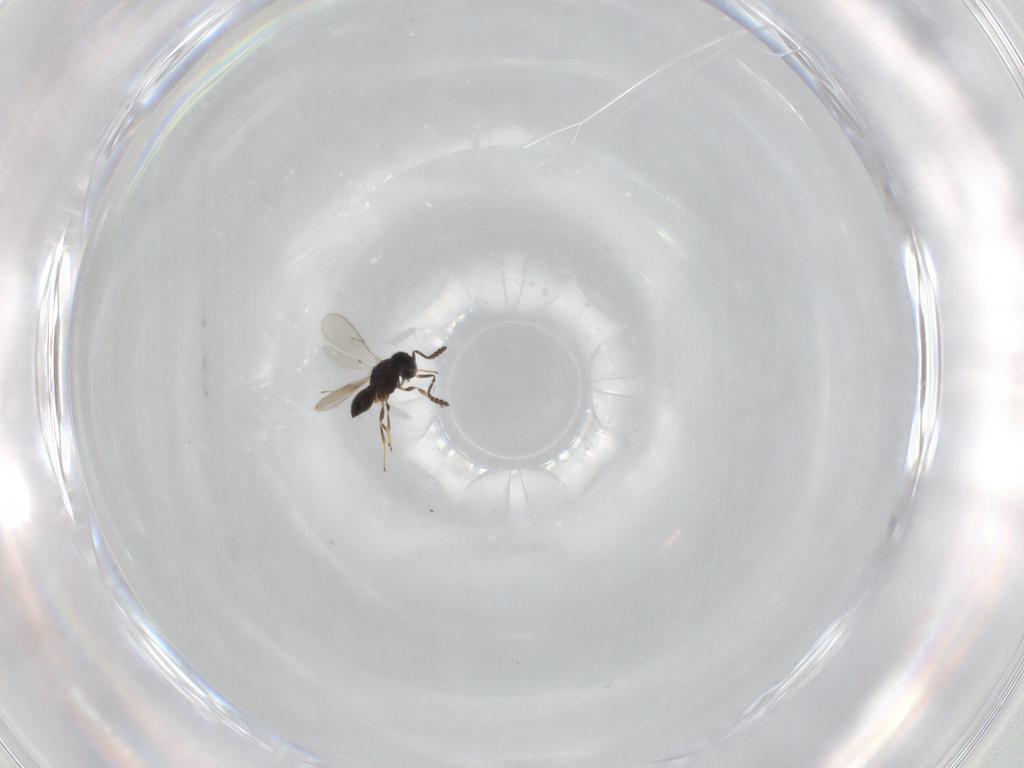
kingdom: Animalia
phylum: Arthropoda
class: Insecta
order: Hymenoptera
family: Scelionidae
